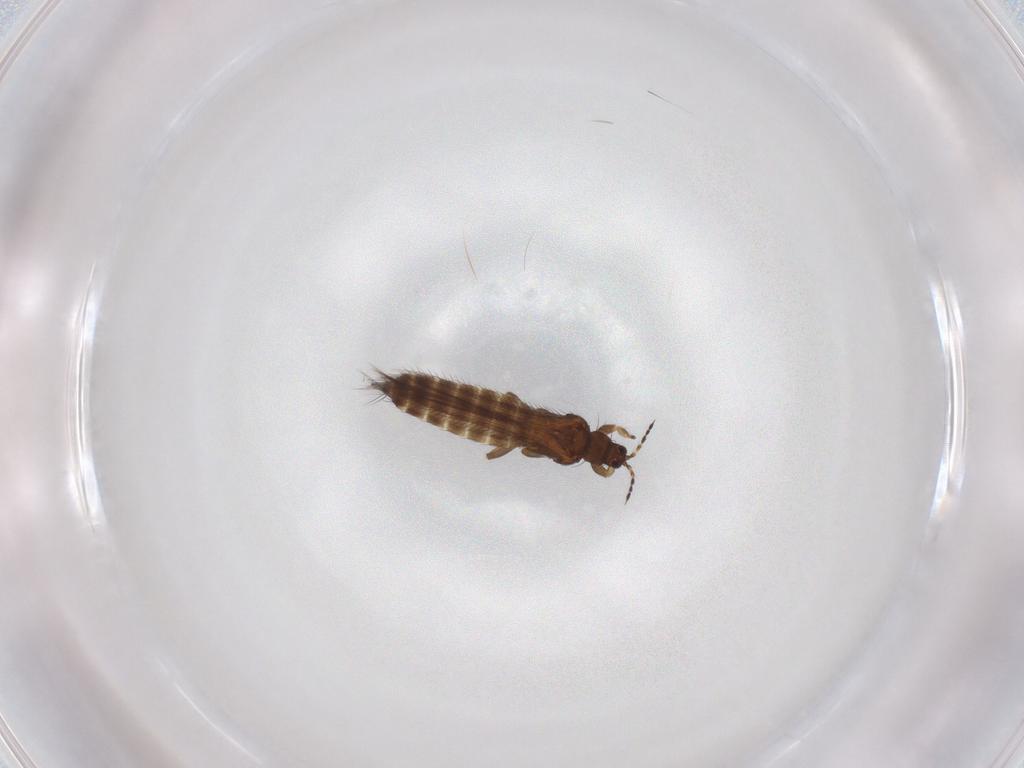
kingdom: Animalia
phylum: Arthropoda
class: Insecta
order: Thysanoptera
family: Thripidae
